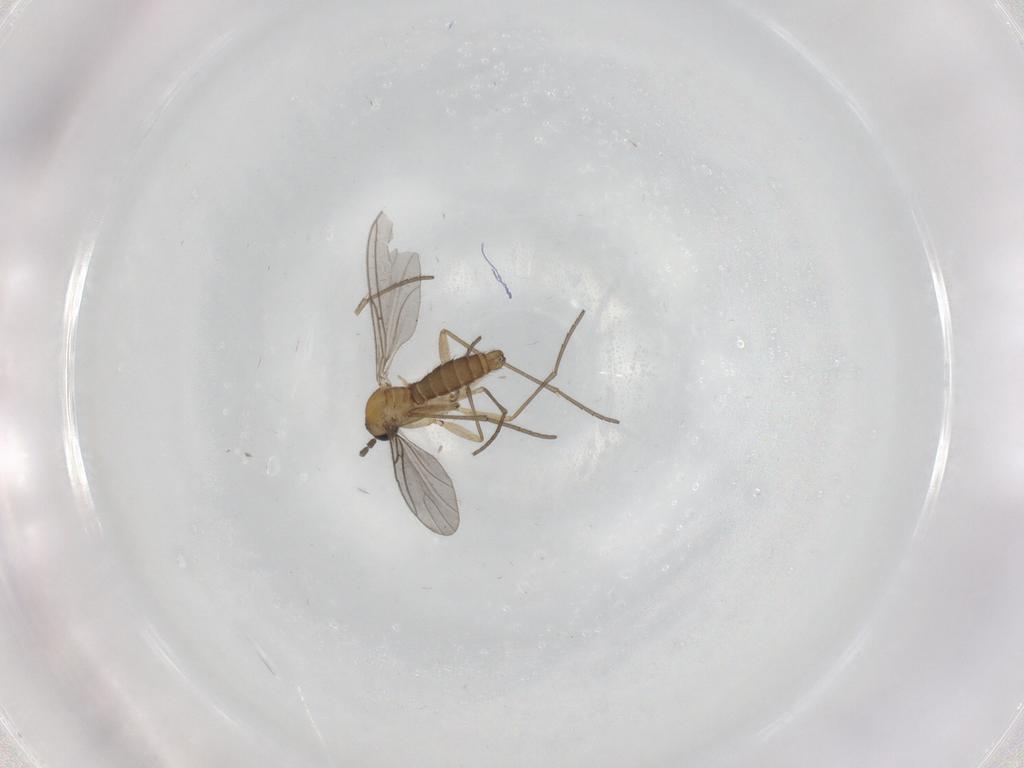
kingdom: Animalia
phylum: Arthropoda
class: Insecta
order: Diptera
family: Sciaridae
